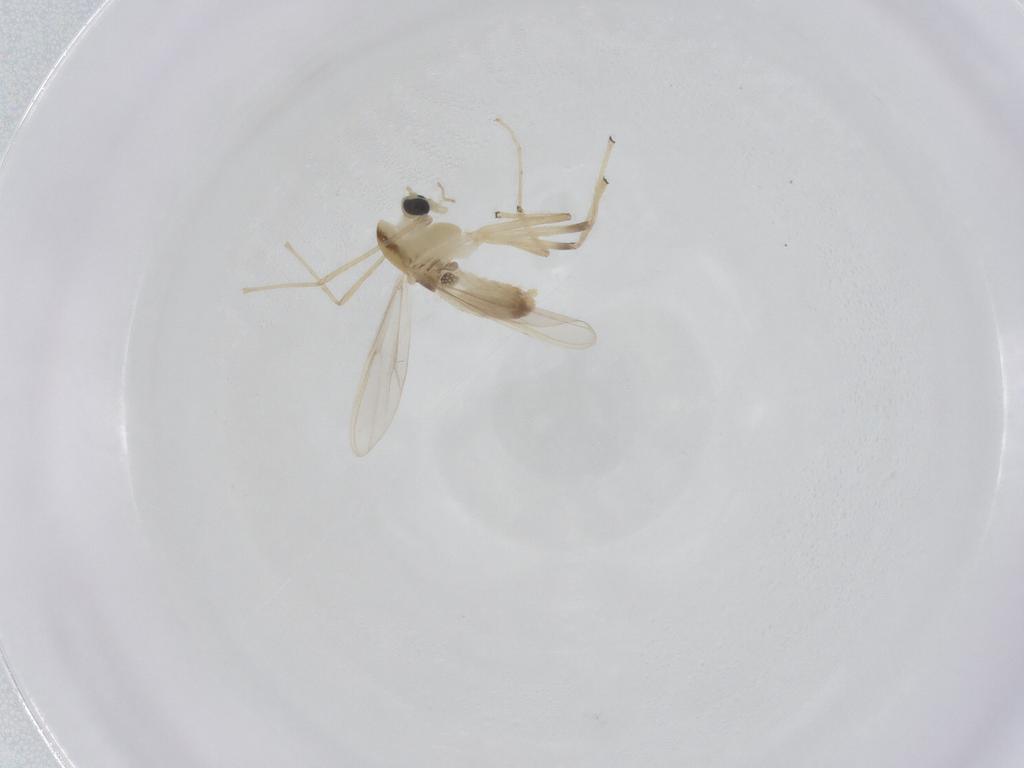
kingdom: Animalia
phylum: Arthropoda
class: Insecta
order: Diptera
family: Chironomidae
